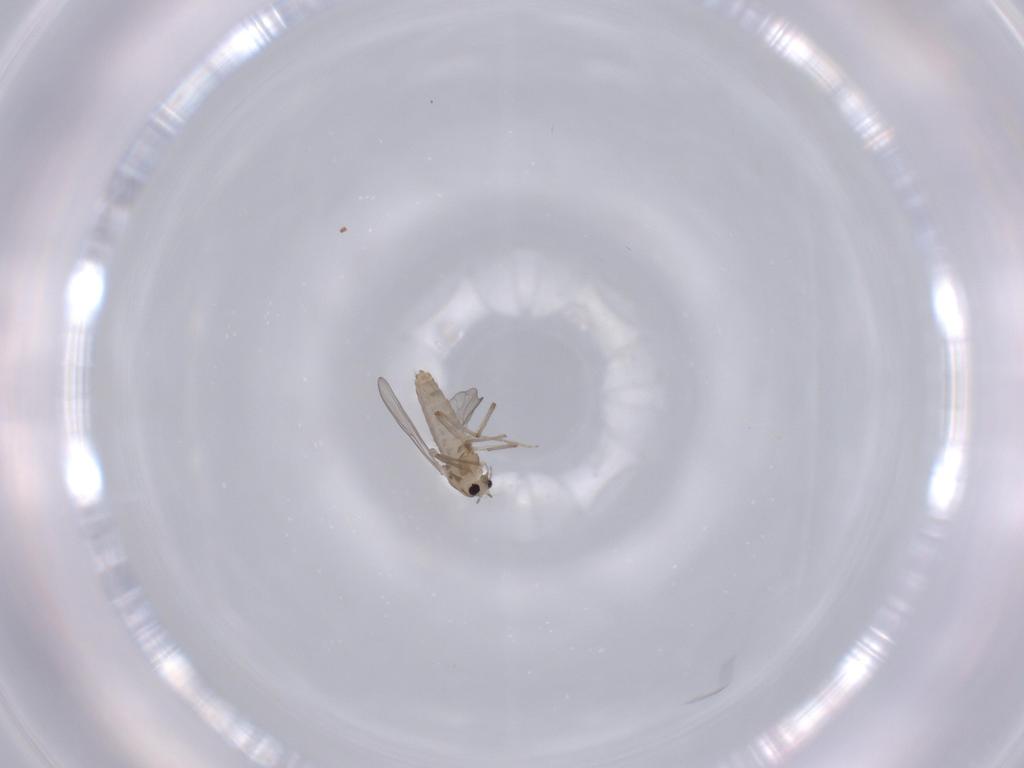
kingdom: Animalia
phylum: Arthropoda
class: Insecta
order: Diptera
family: Chironomidae
